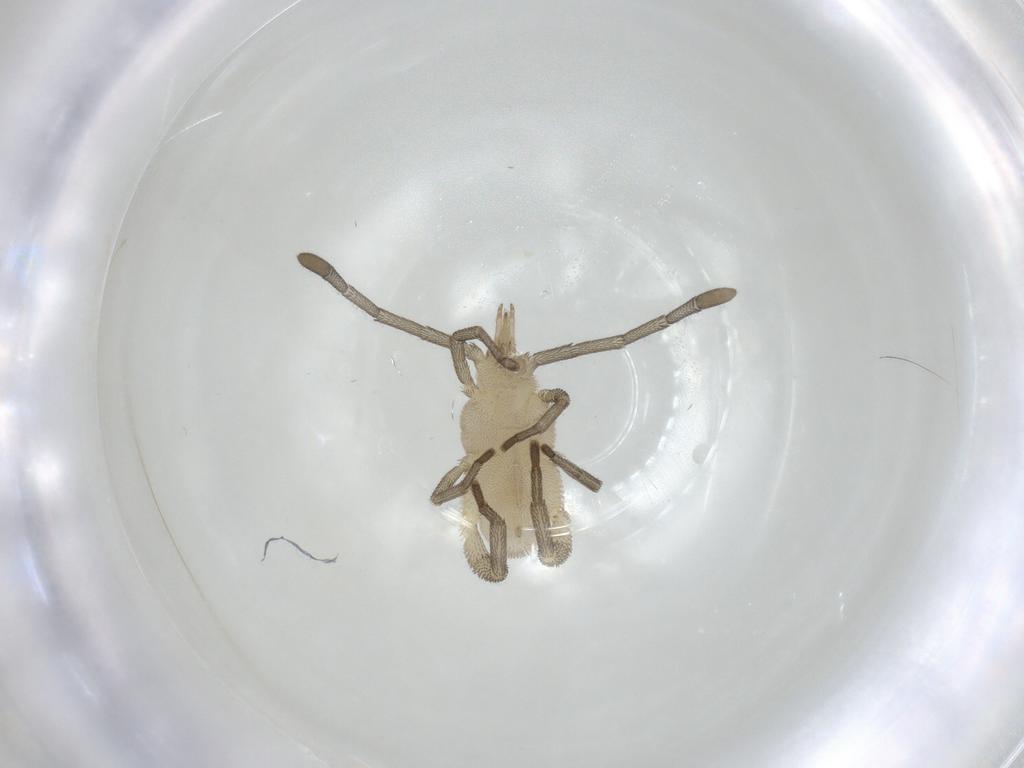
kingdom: Animalia
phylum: Arthropoda
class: Arachnida
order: Trombidiformes
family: Smarididae
